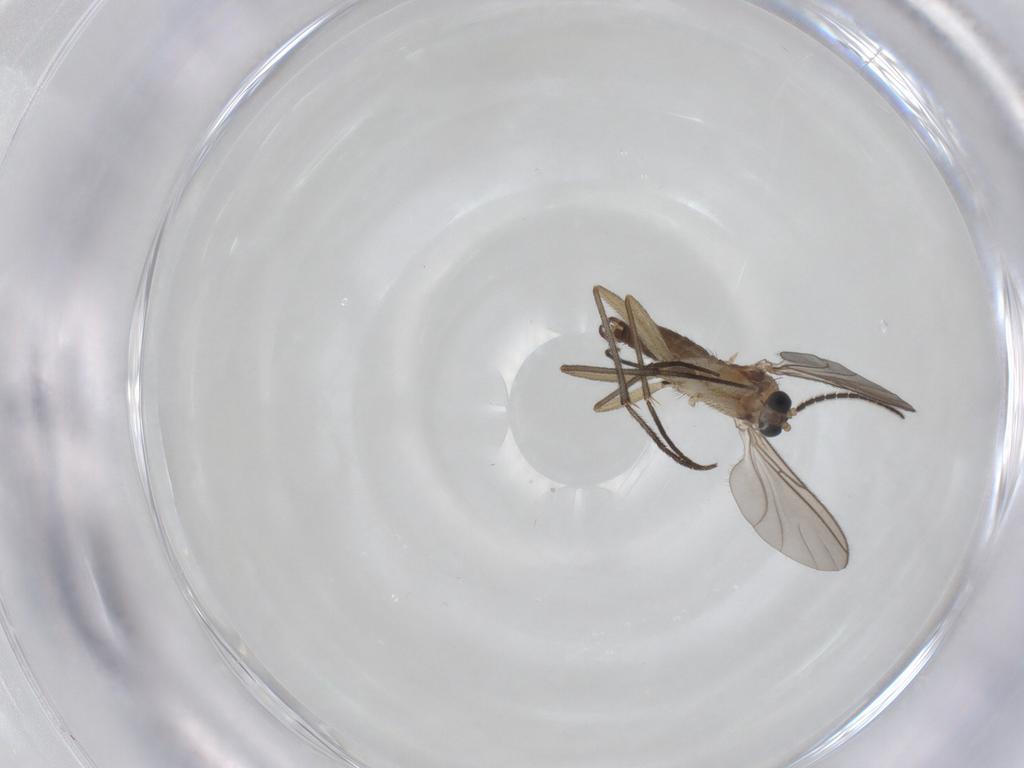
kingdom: Animalia
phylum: Arthropoda
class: Insecta
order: Diptera
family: Sciaridae
